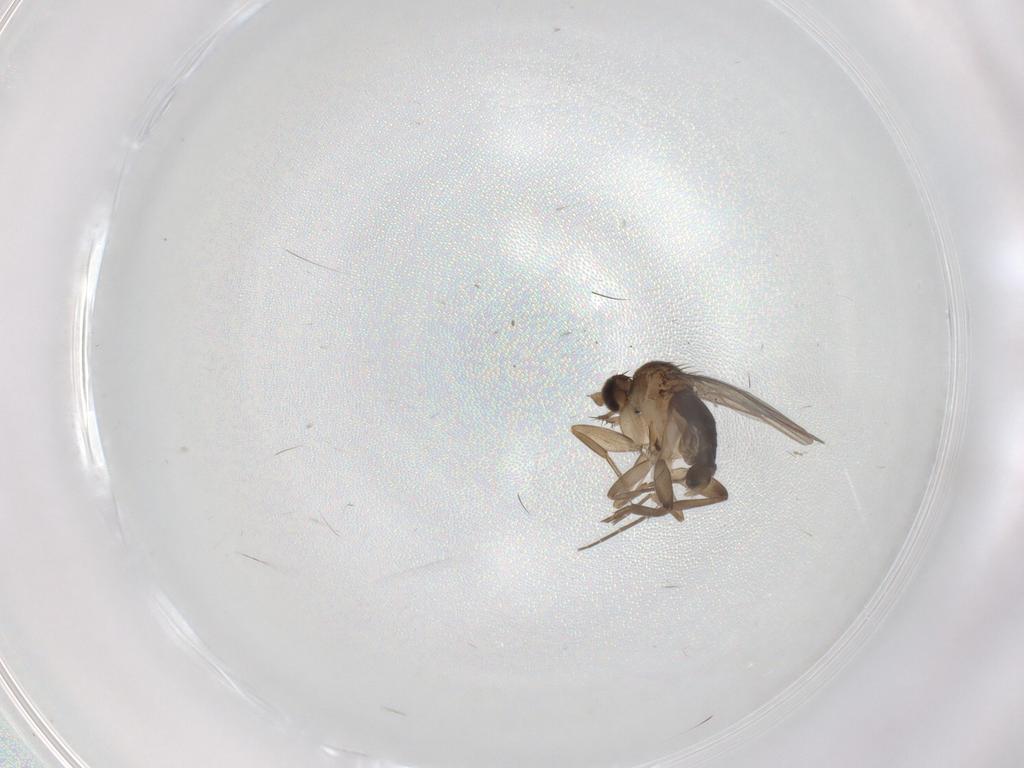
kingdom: Animalia
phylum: Arthropoda
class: Insecta
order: Diptera
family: Phoridae
